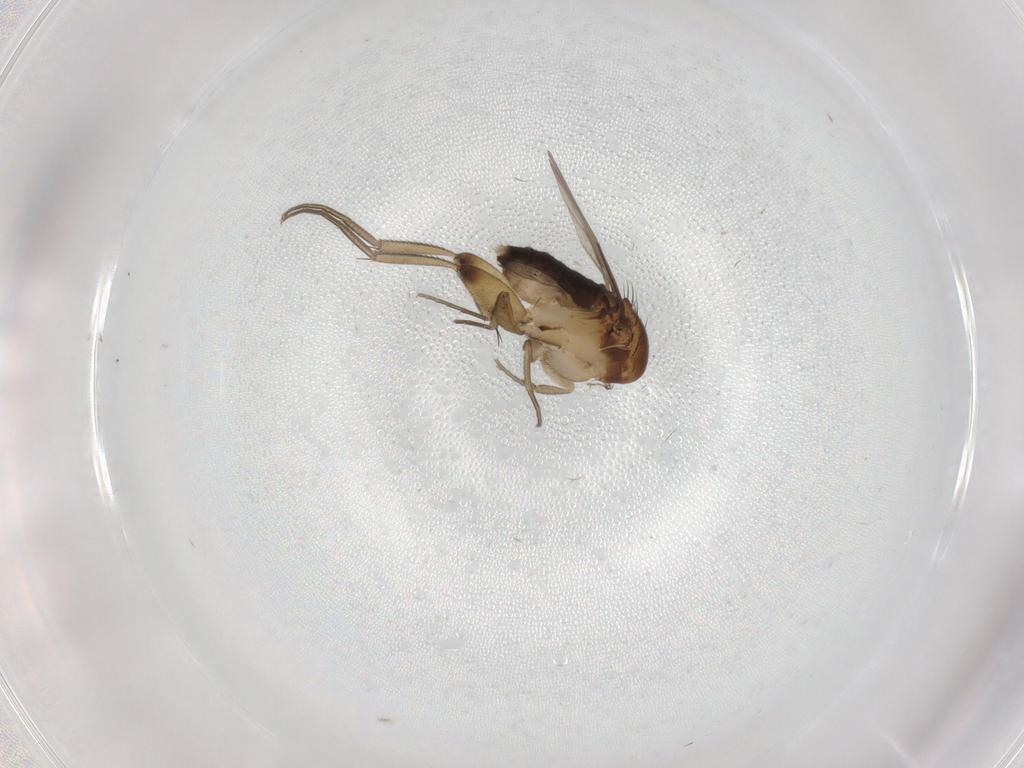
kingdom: Animalia
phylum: Arthropoda
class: Insecta
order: Diptera
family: Phoridae
